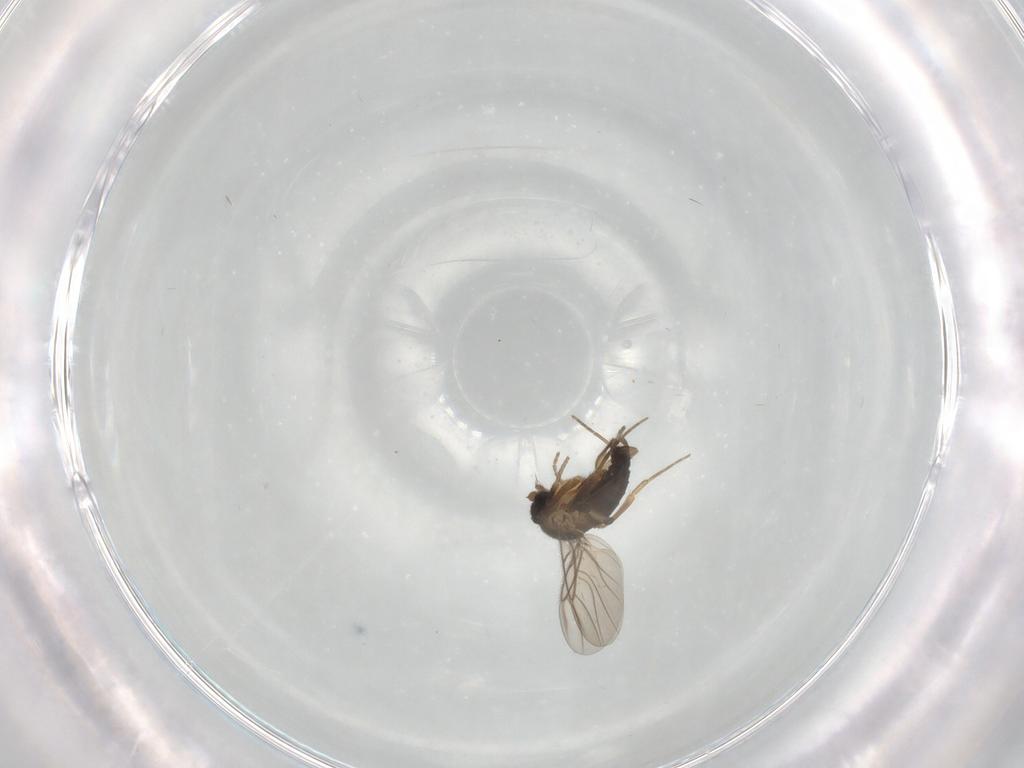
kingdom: Animalia
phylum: Arthropoda
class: Insecta
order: Diptera
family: Phoridae
